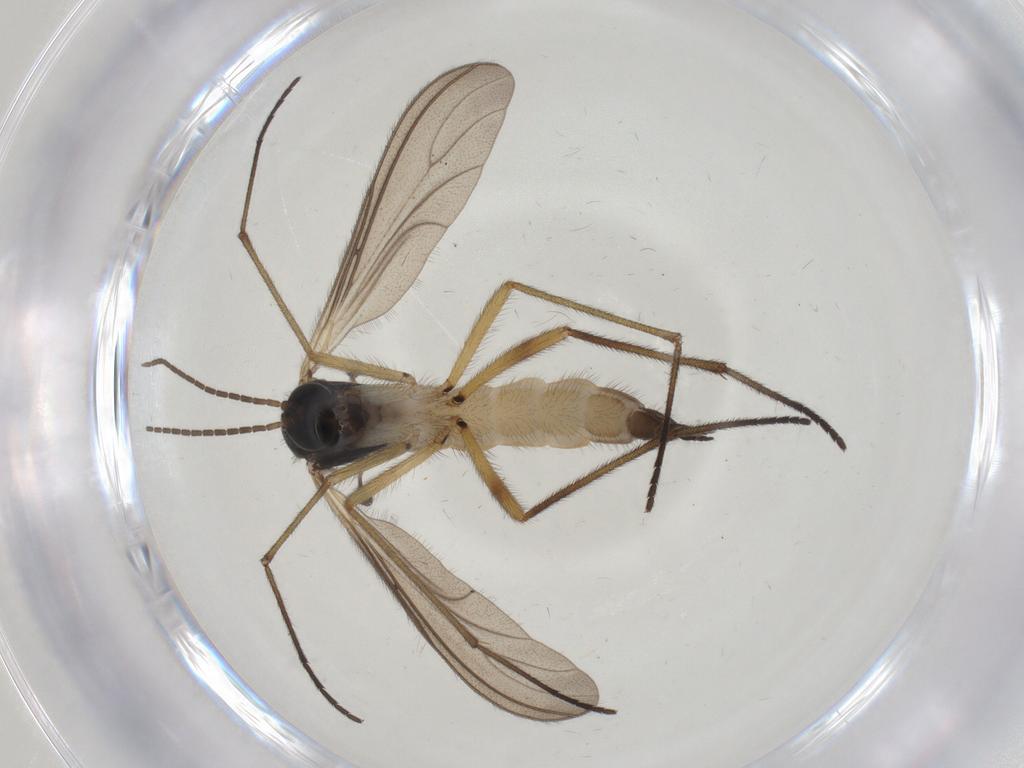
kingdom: Animalia
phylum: Arthropoda
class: Insecta
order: Diptera
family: Sciaridae
